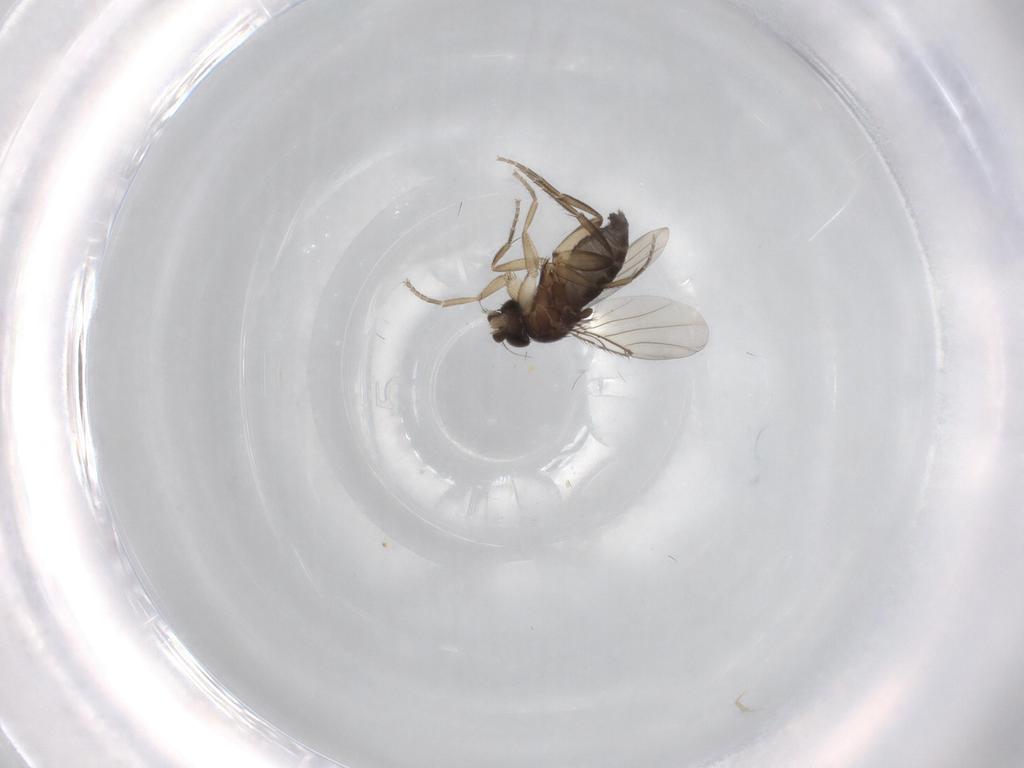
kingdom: Animalia
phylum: Arthropoda
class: Insecta
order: Diptera
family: Phoridae
